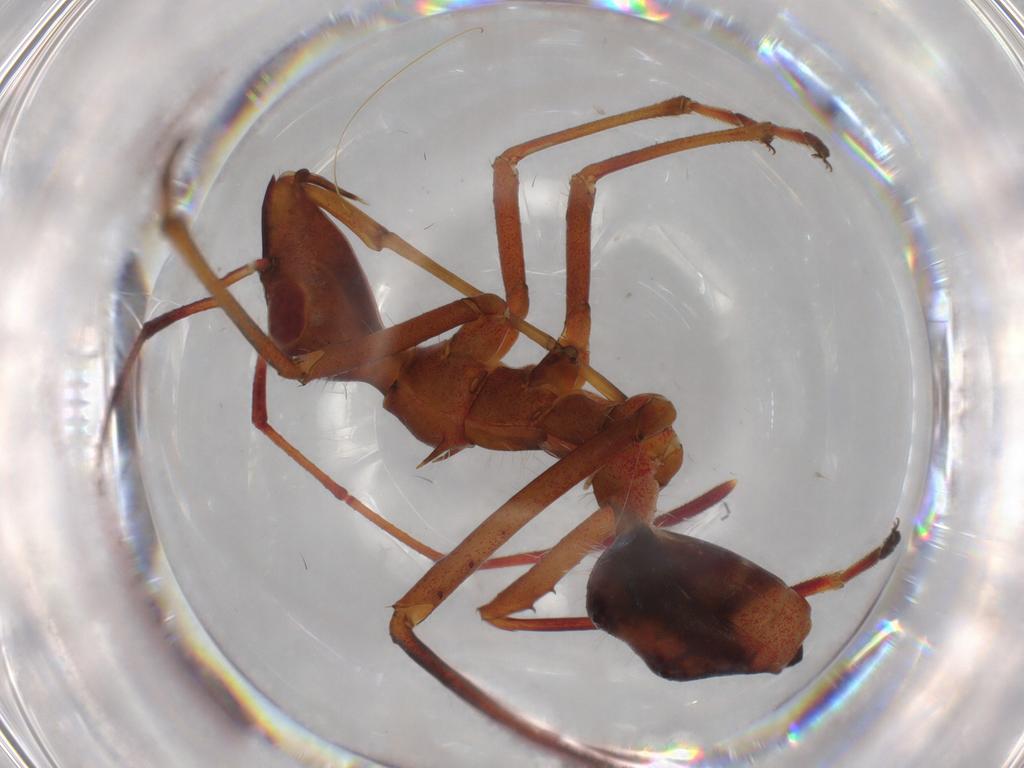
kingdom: Animalia
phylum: Arthropoda
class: Insecta
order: Hemiptera
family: Alydidae
